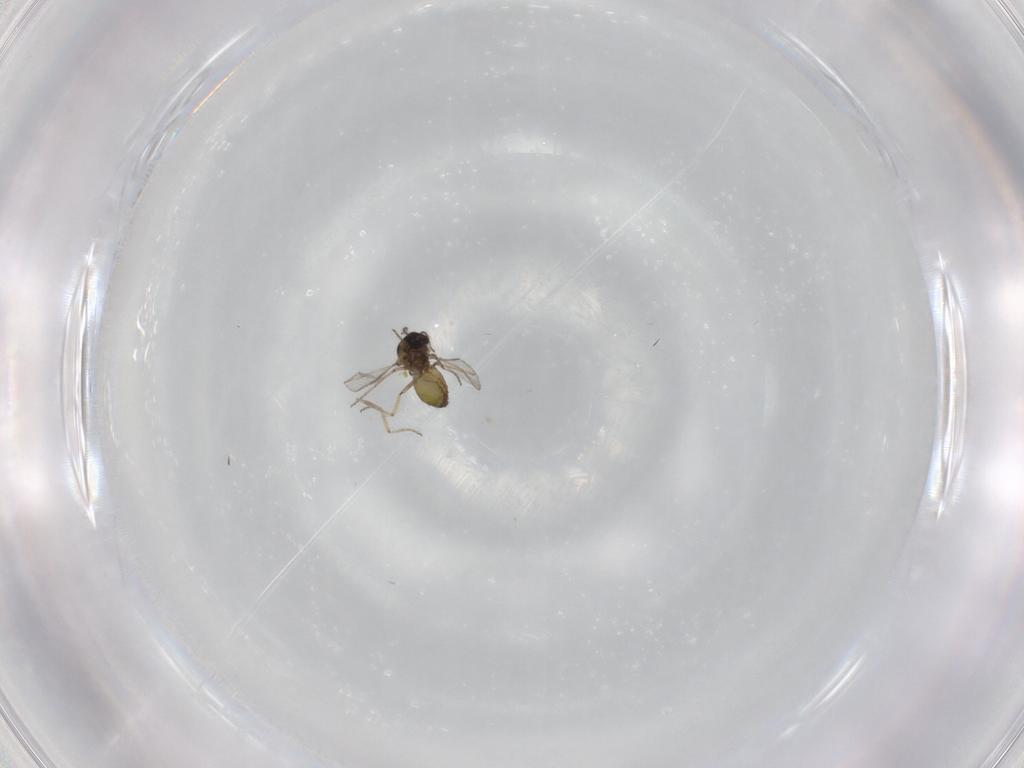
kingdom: Animalia
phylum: Arthropoda
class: Insecta
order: Diptera
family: Ceratopogonidae
